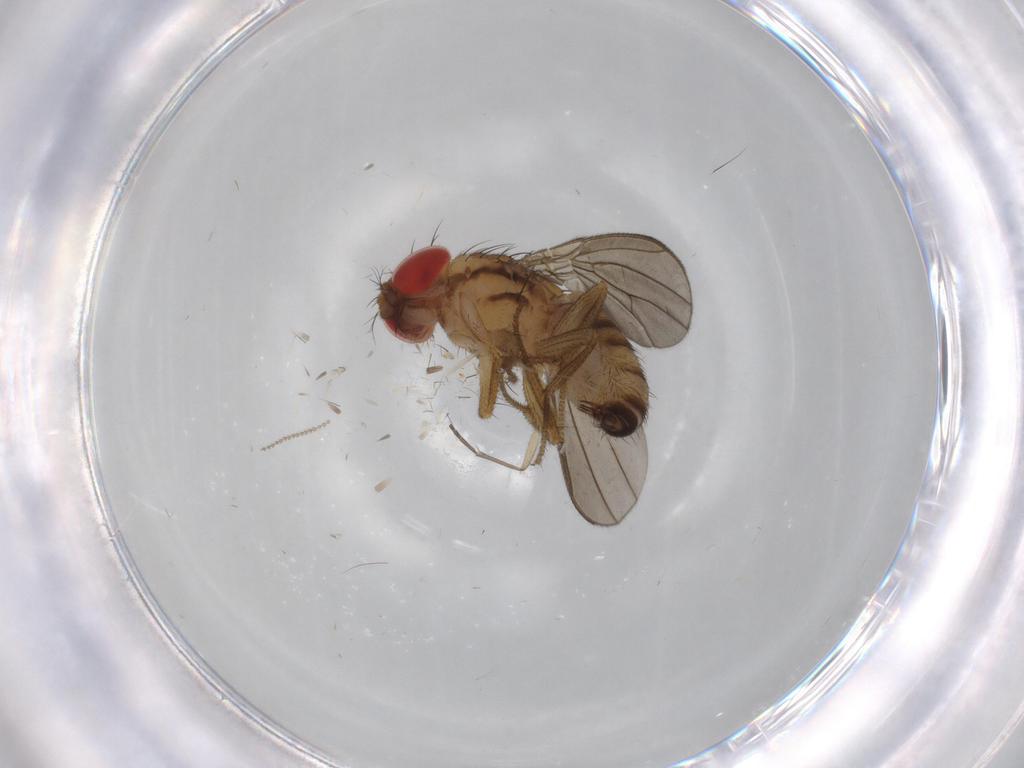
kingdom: Animalia
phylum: Arthropoda
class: Insecta
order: Diptera
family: Drosophilidae
